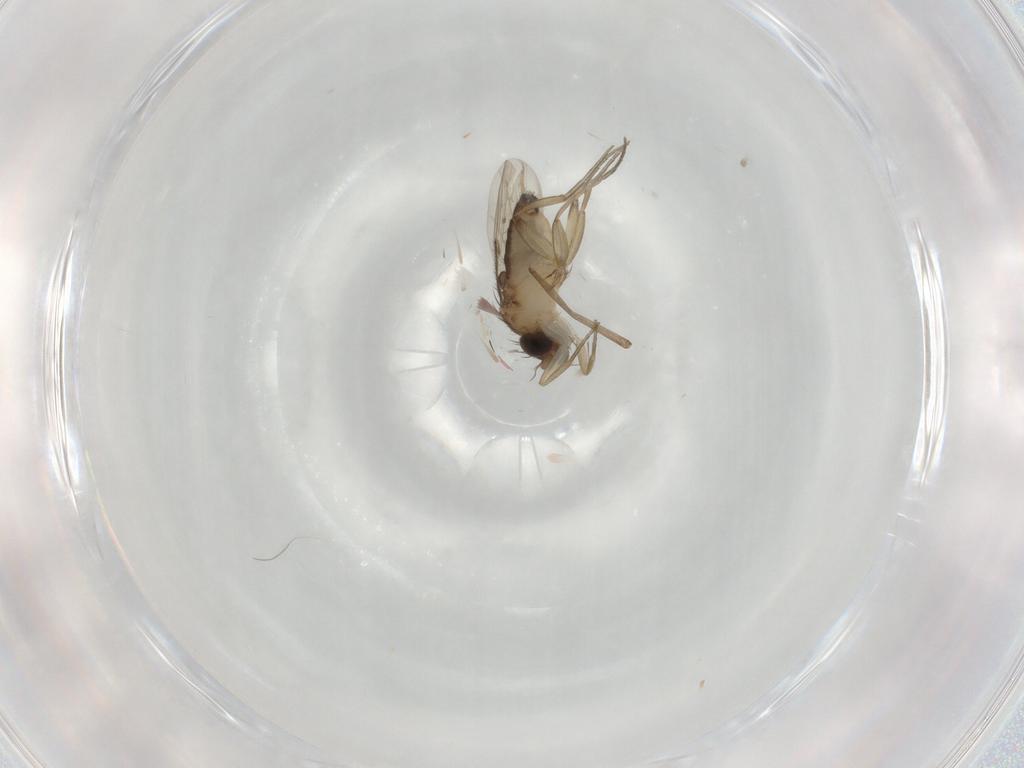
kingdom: Animalia
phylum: Arthropoda
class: Insecta
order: Diptera
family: Phoridae
